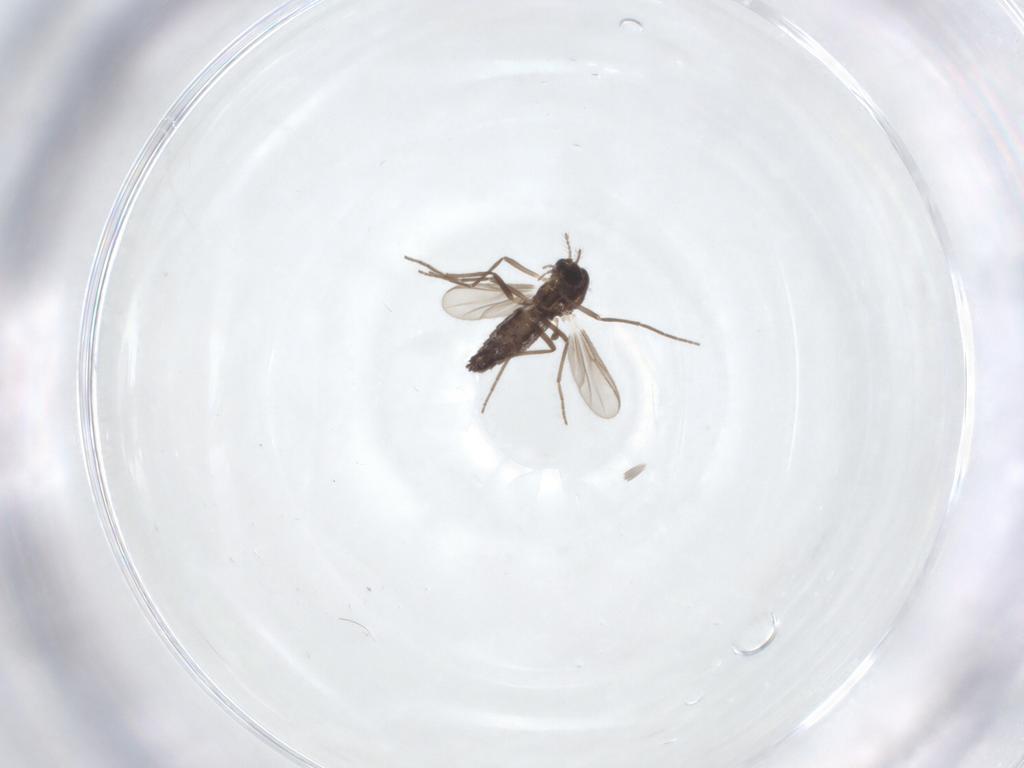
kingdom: Animalia
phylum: Arthropoda
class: Insecta
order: Diptera
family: Chironomidae
